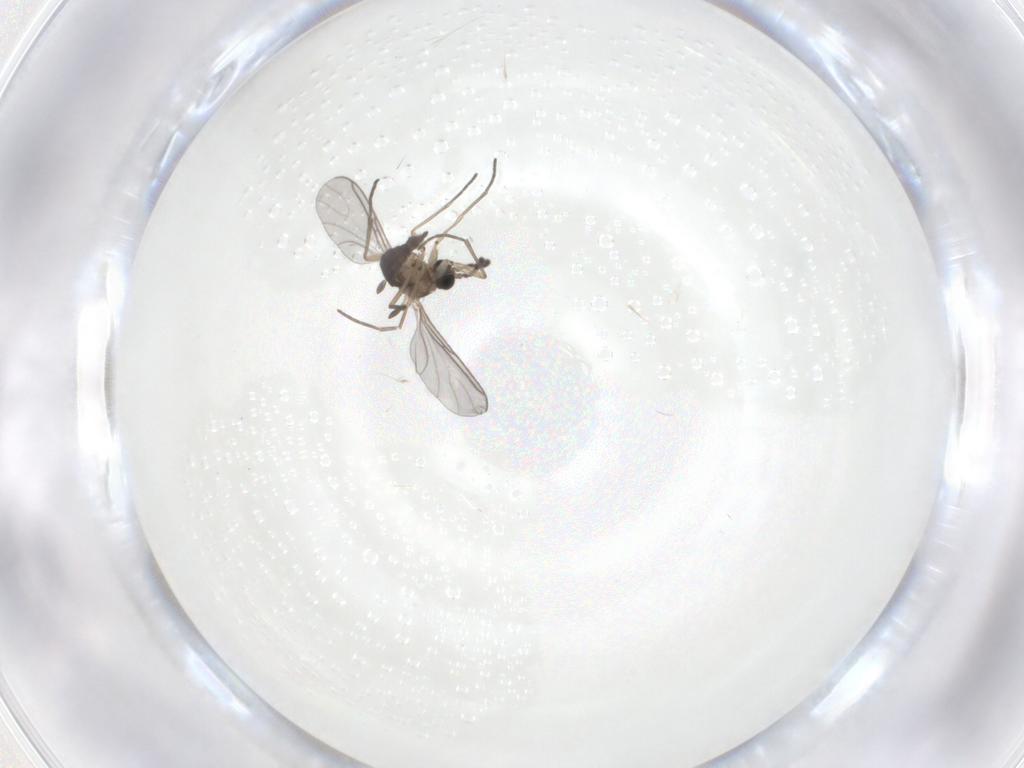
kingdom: Animalia
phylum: Arthropoda
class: Insecta
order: Diptera
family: Sciaridae
